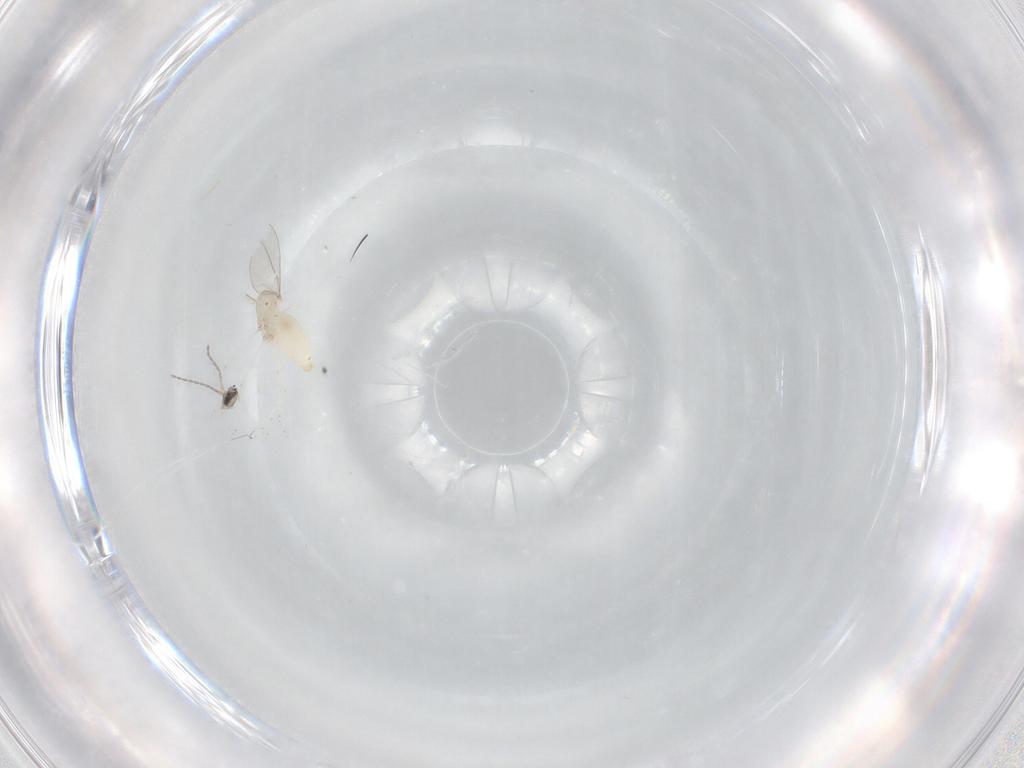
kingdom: Animalia
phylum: Arthropoda
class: Insecta
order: Diptera
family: Cecidomyiidae
